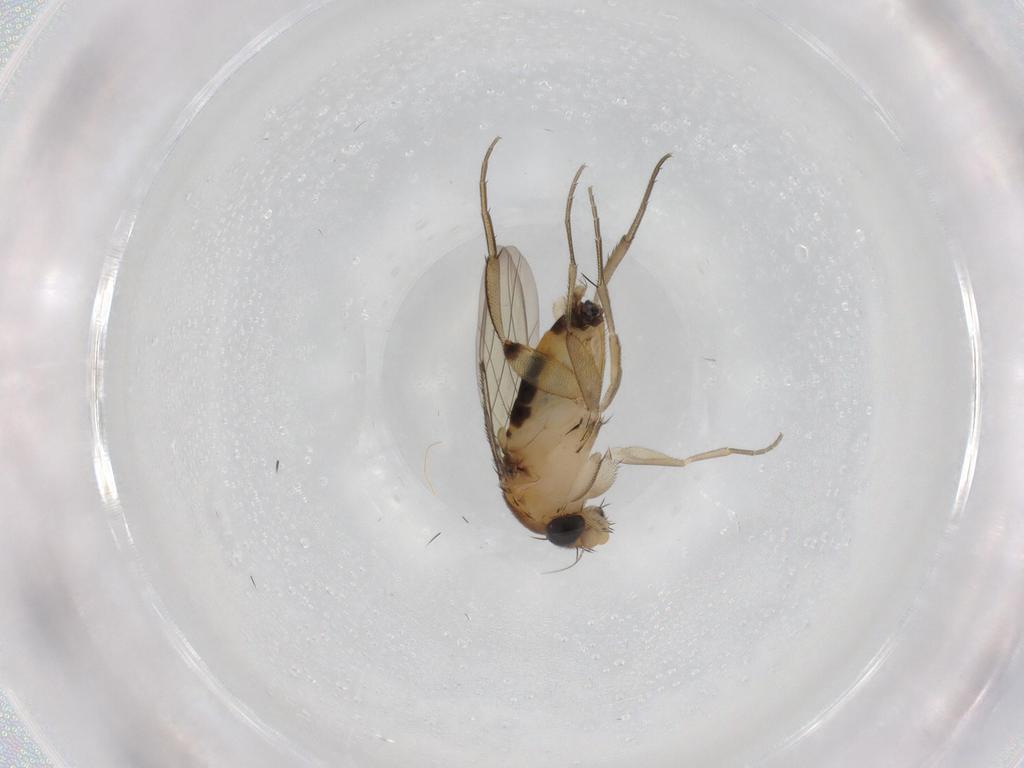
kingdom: Animalia
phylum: Arthropoda
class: Insecta
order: Diptera
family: Phoridae
